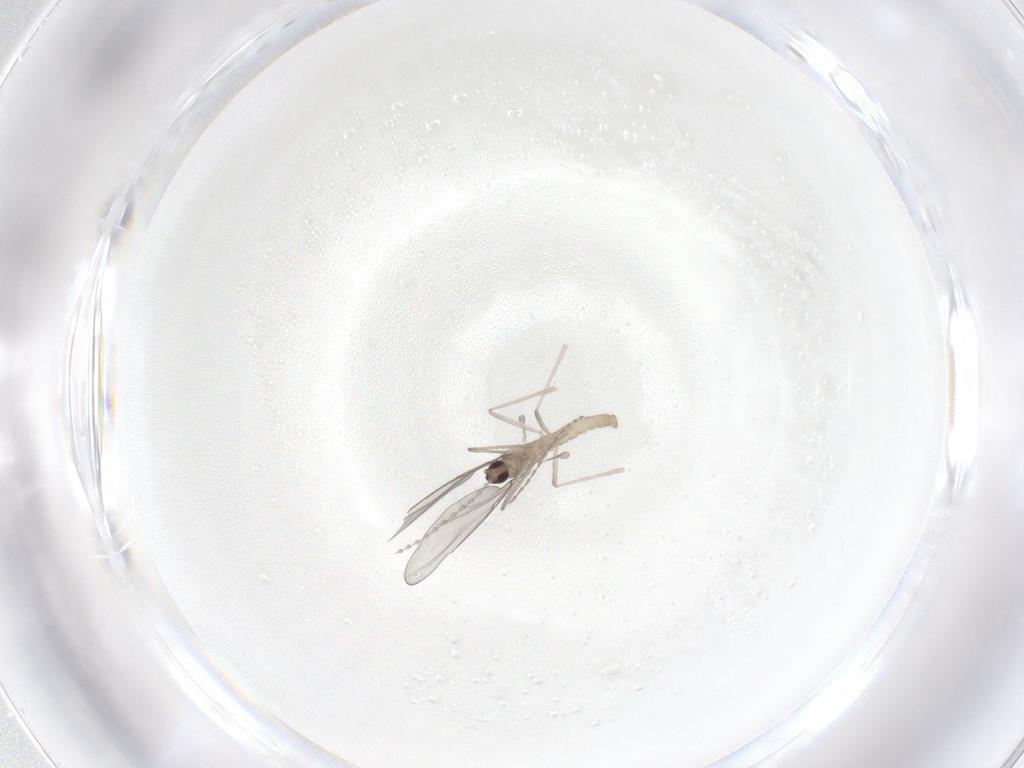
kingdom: Animalia
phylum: Arthropoda
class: Insecta
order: Diptera
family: Cecidomyiidae
